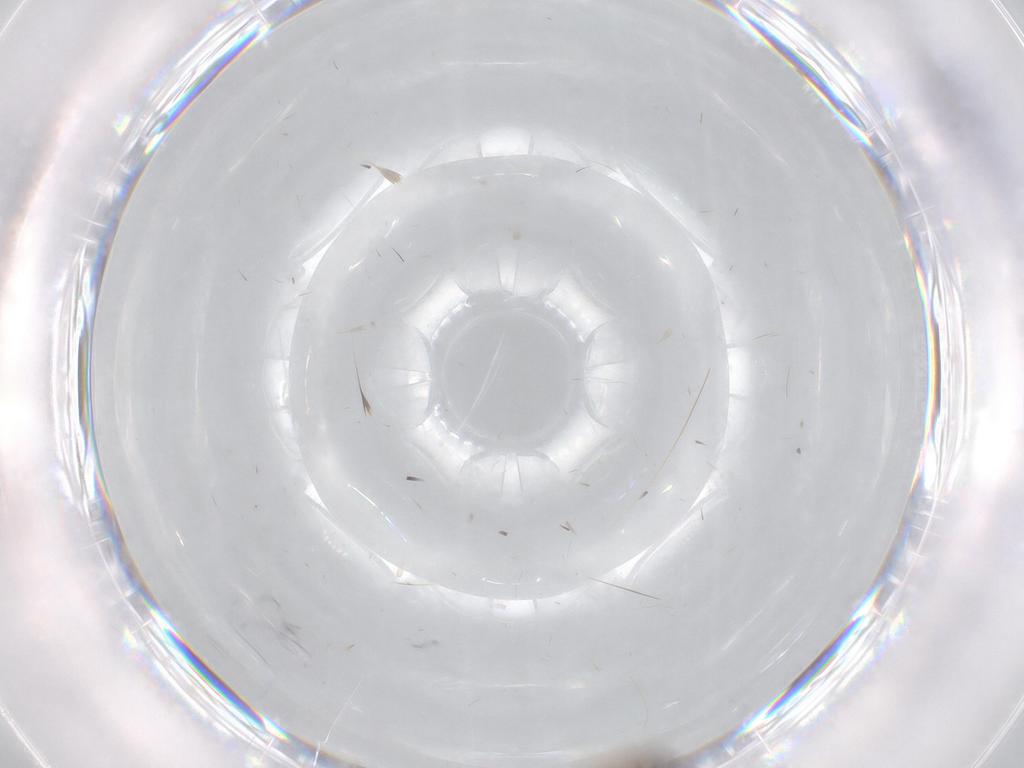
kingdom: Animalia
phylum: Arthropoda
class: Insecta
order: Diptera
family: Ceratopogonidae
